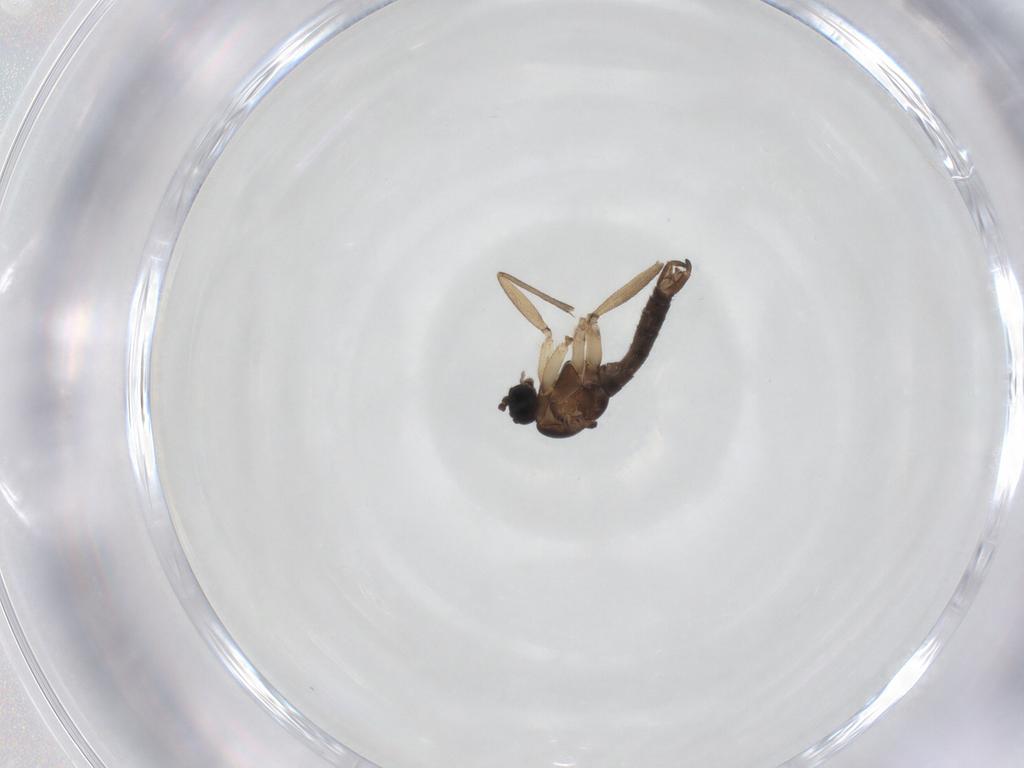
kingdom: Animalia
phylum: Arthropoda
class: Insecta
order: Diptera
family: Sciaridae
